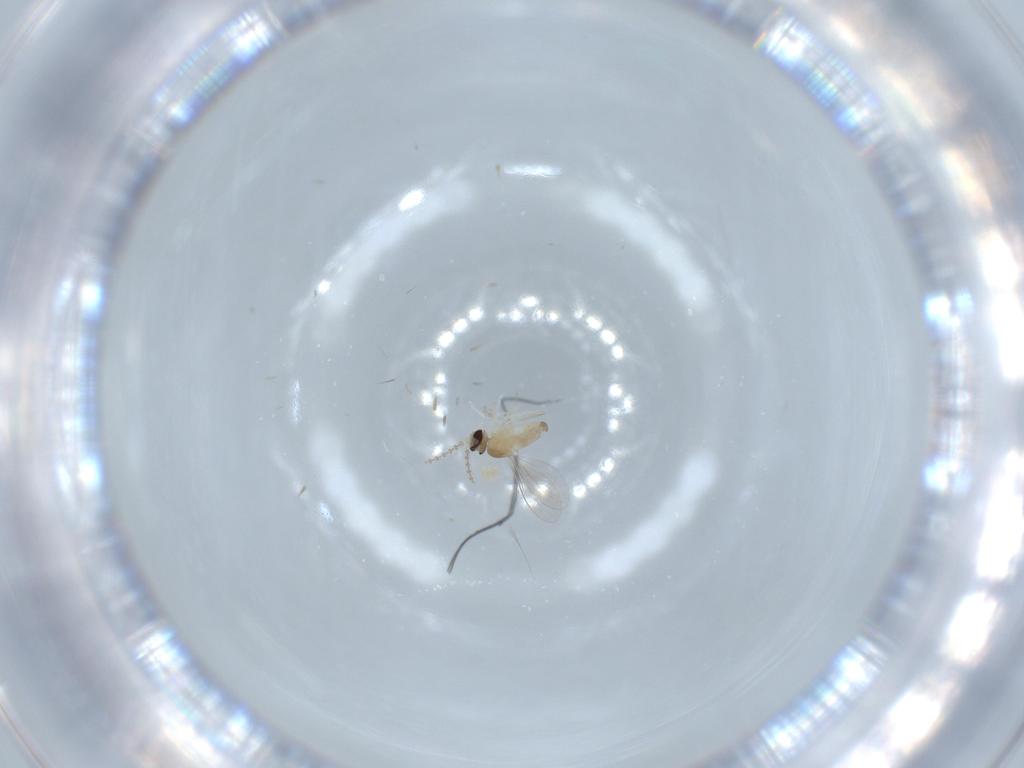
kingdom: Animalia
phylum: Arthropoda
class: Insecta
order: Diptera
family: Cecidomyiidae
